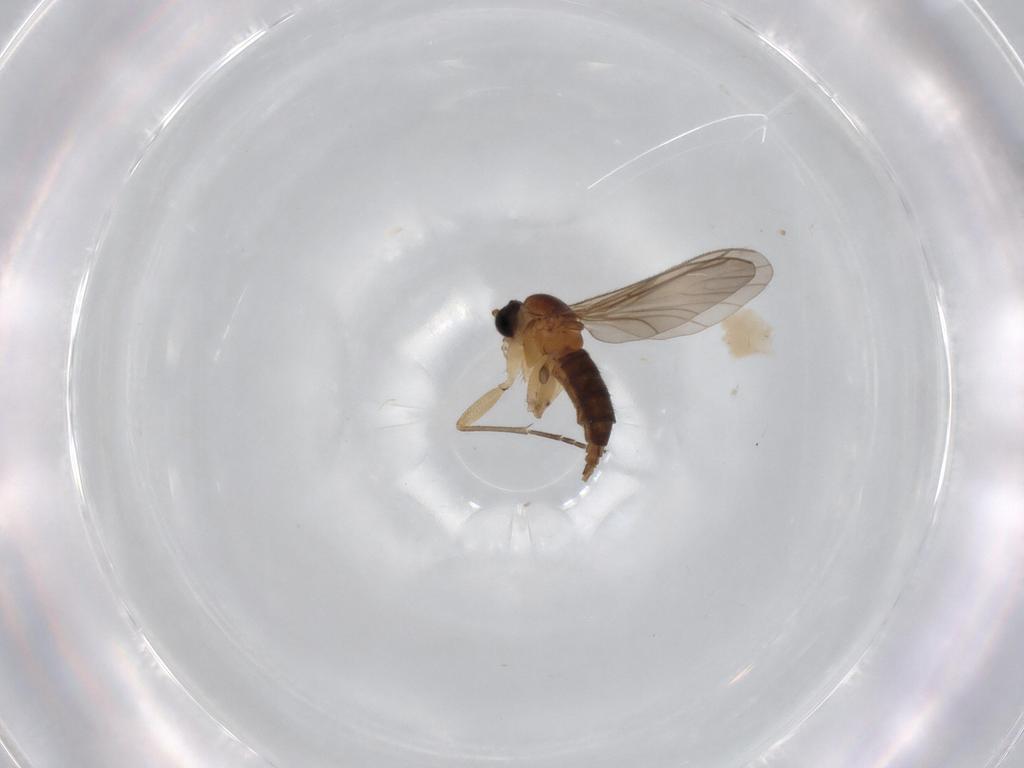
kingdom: Animalia
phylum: Arthropoda
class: Insecta
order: Diptera
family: Sciaridae
